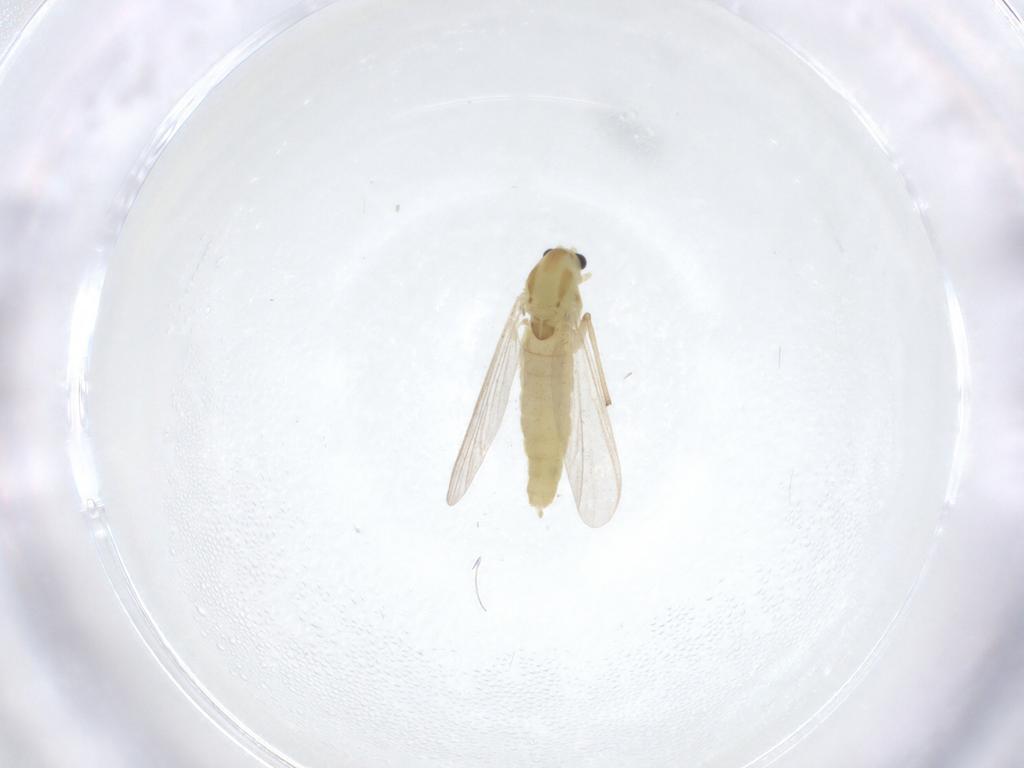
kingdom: Animalia
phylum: Arthropoda
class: Insecta
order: Diptera
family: Chironomidae
